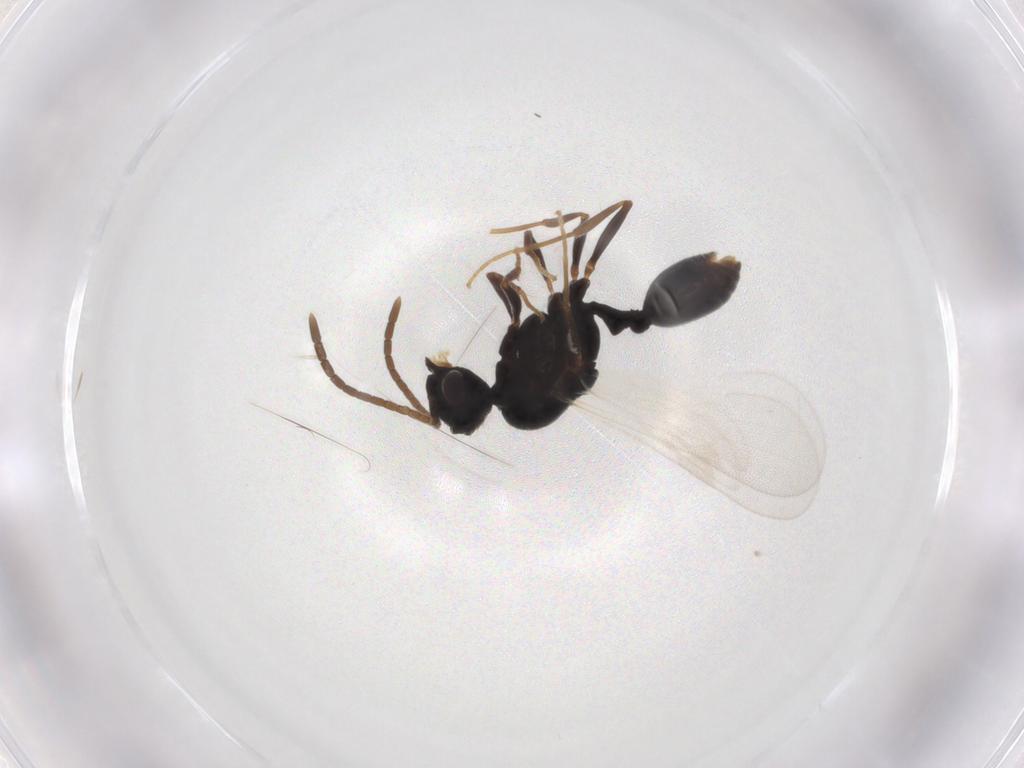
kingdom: Animalia
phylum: Arthropoda
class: Insecta
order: Hymenoptera
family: Formicidae
